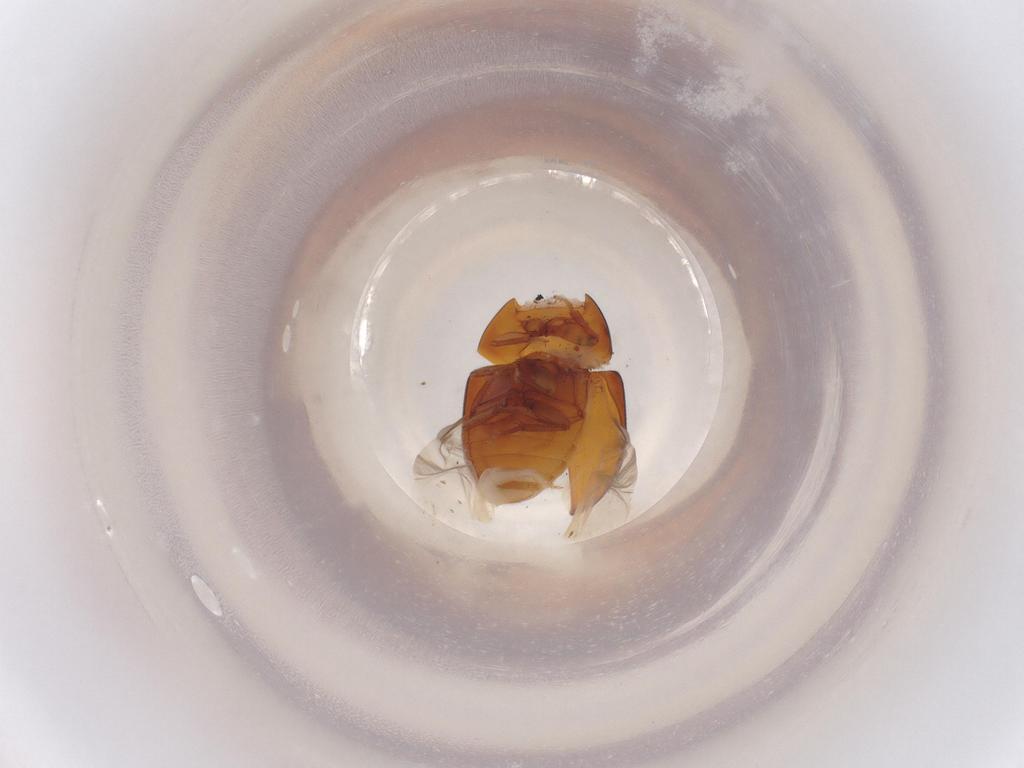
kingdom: Animalia
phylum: Arthropoda
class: Insecta
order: Coleoptera
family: Phalacridae
